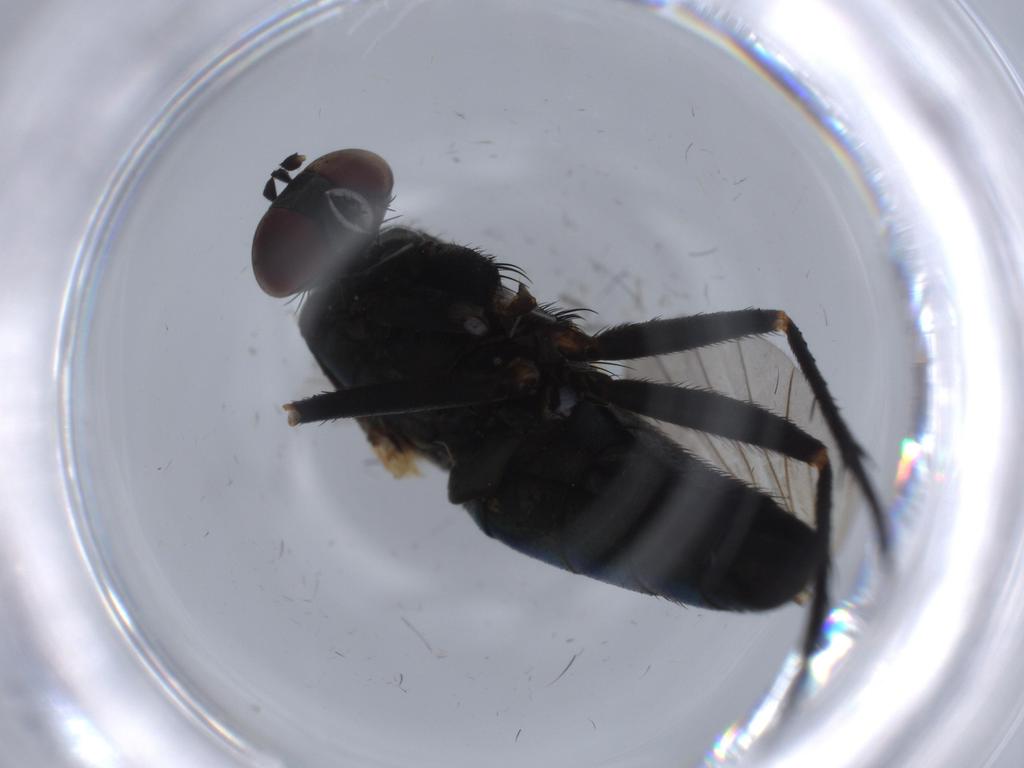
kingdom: Animalia
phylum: Arthropoda
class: Insecta
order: Diptera
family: Dolichopodidae
